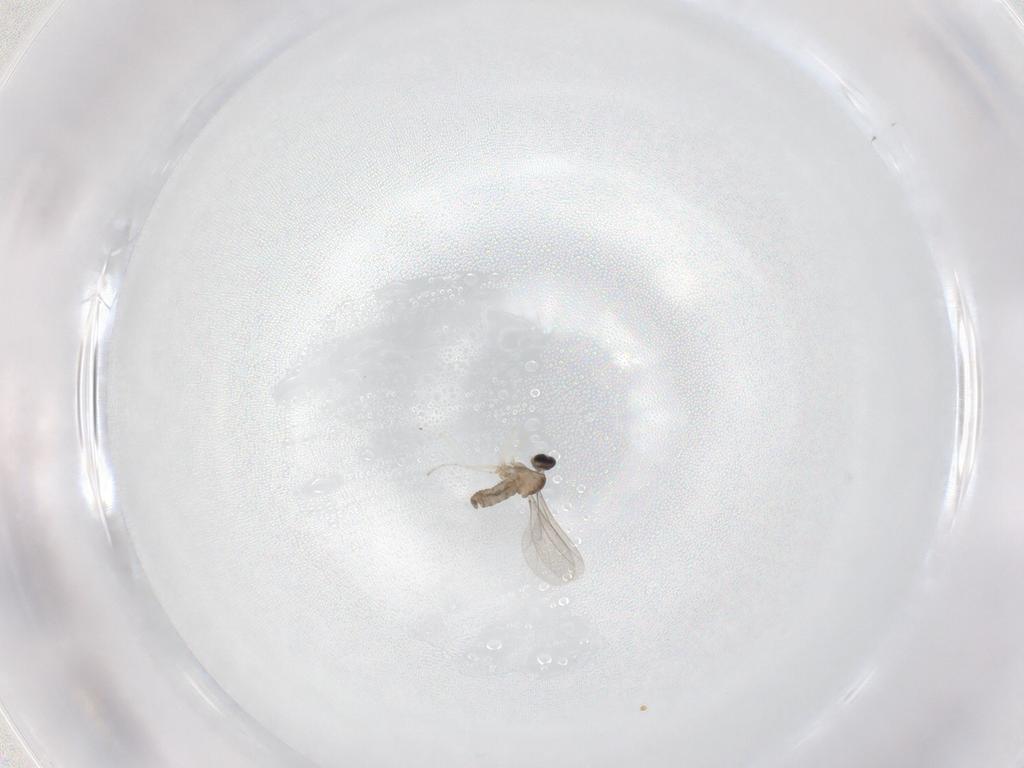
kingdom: Animalia
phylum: Arthropoda
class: Insecta
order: Diptera
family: Cecidomyiidae
